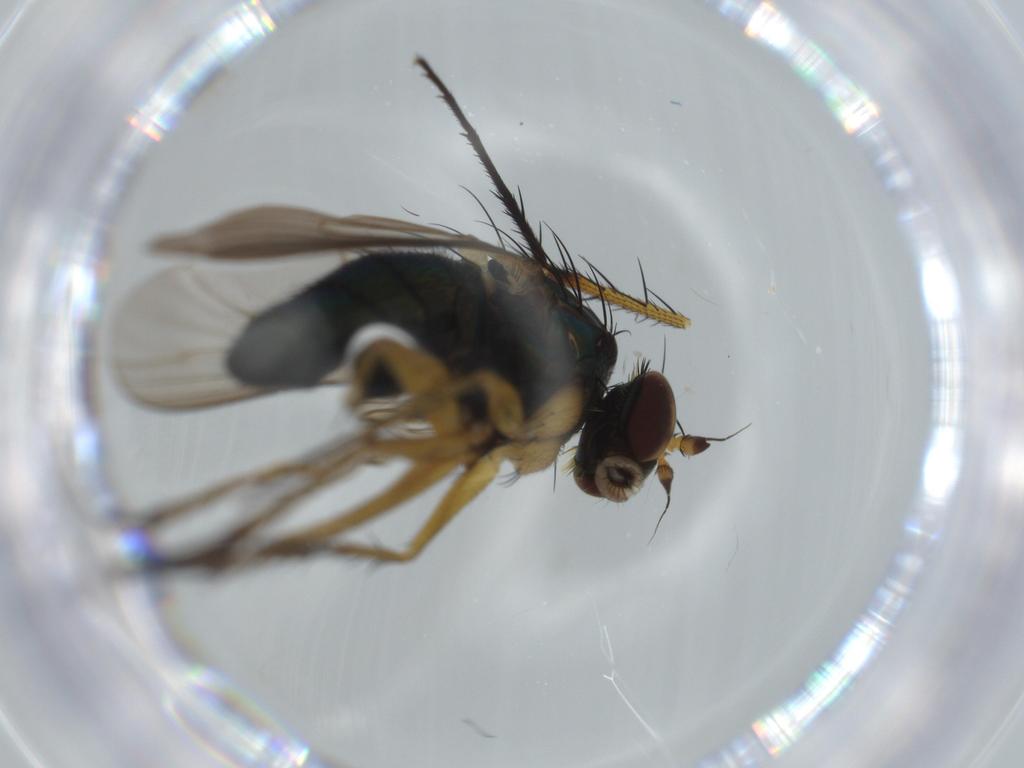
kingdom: Animalia
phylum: Arthropoda
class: Insecta
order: Diptera
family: Dolichopodidae
